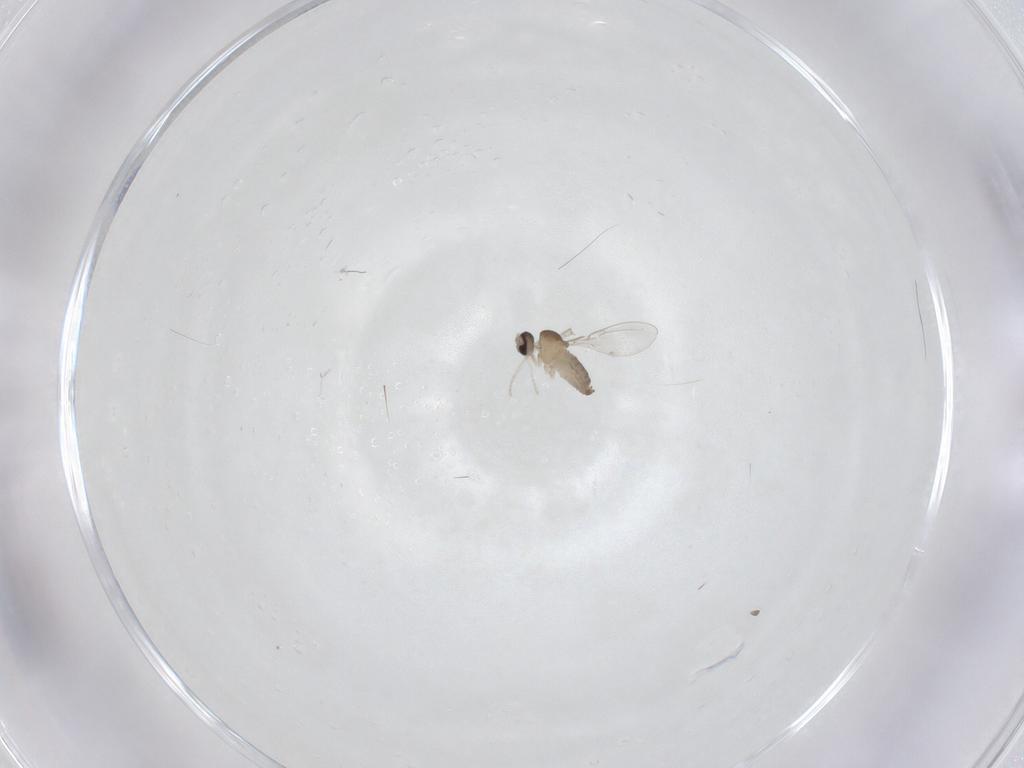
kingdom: Animalia
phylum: Arthropoda
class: Insecta
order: Diptera
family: Cecidomyiidae
